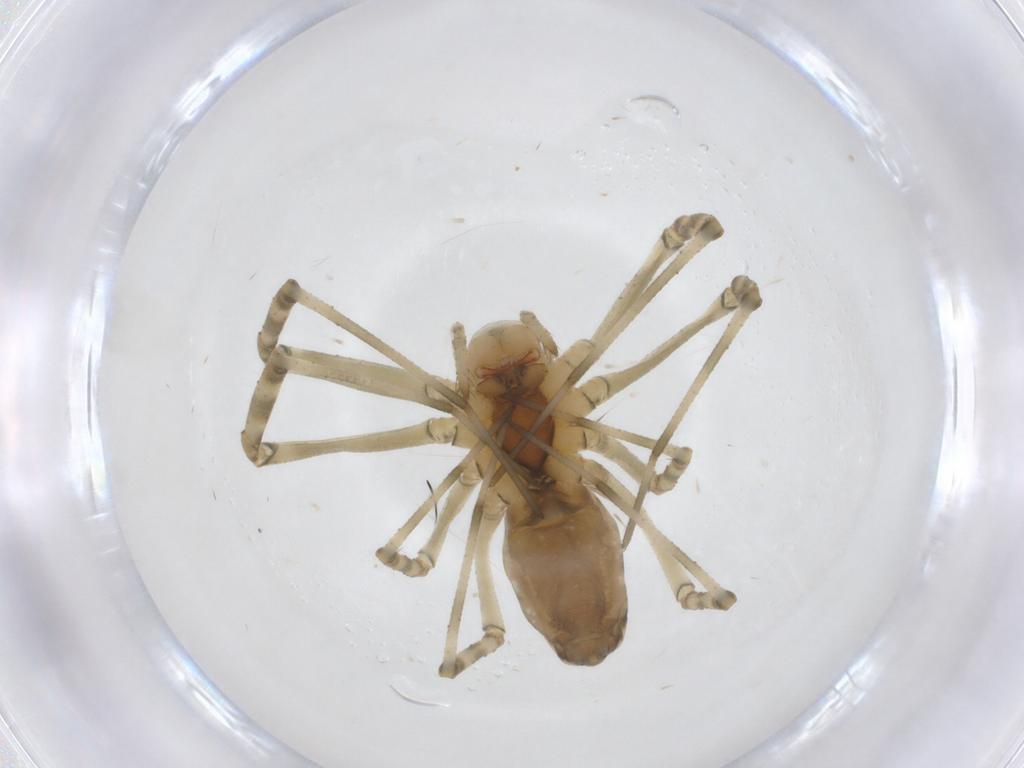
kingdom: Animalia
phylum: Arthropoda
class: Arachnida
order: Araneae
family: Linyphiidae
